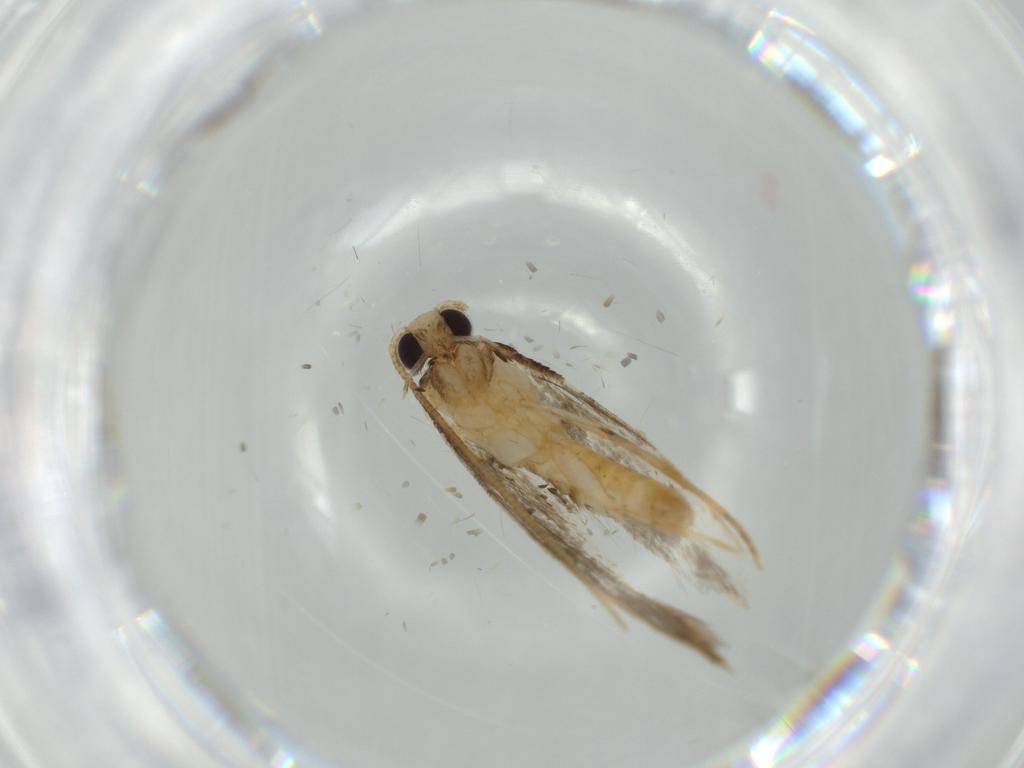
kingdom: Animalia
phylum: Arthropoda
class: Insecta
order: Hymenoptera
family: Bethylidae
